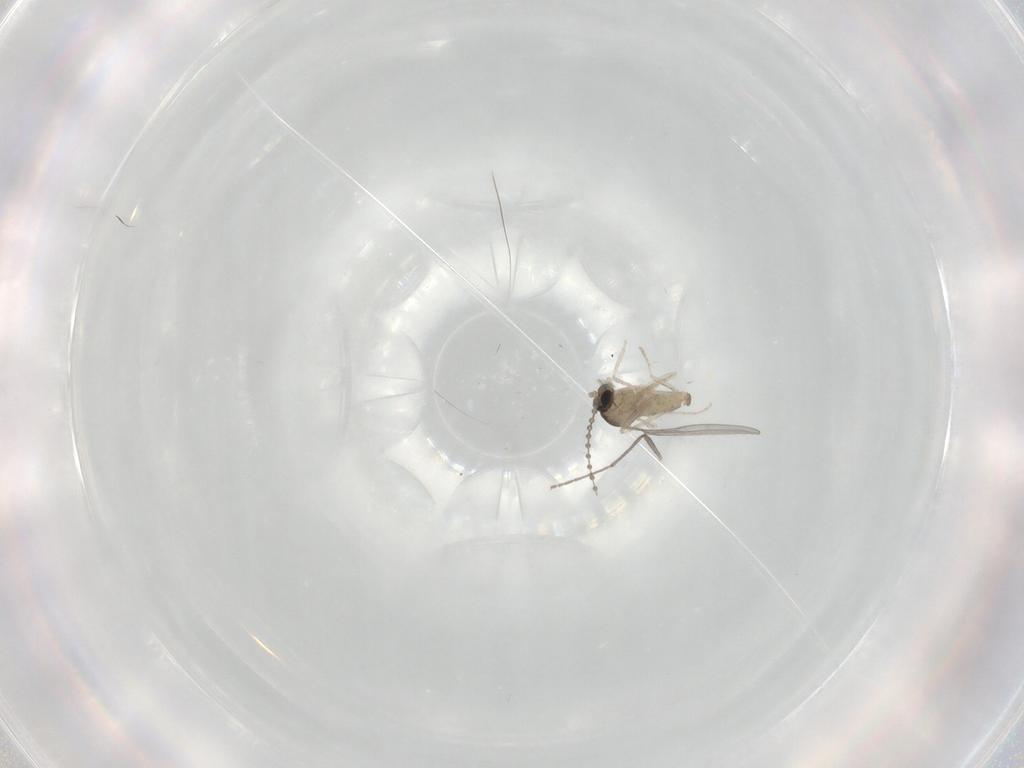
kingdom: Animalia
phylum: Arthropoda
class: Insecta
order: Diptera
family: Cecidomyiidae
